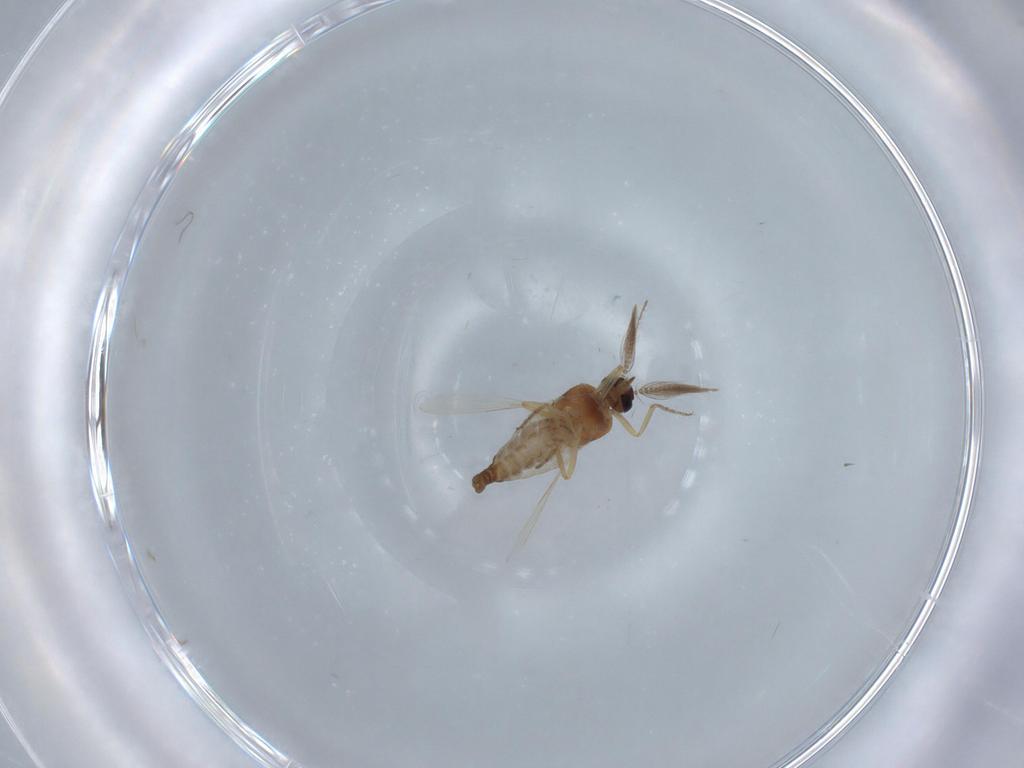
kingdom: Animalia
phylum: Arthropoda
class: Insecta
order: Diptera
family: Ceratopogonidae
